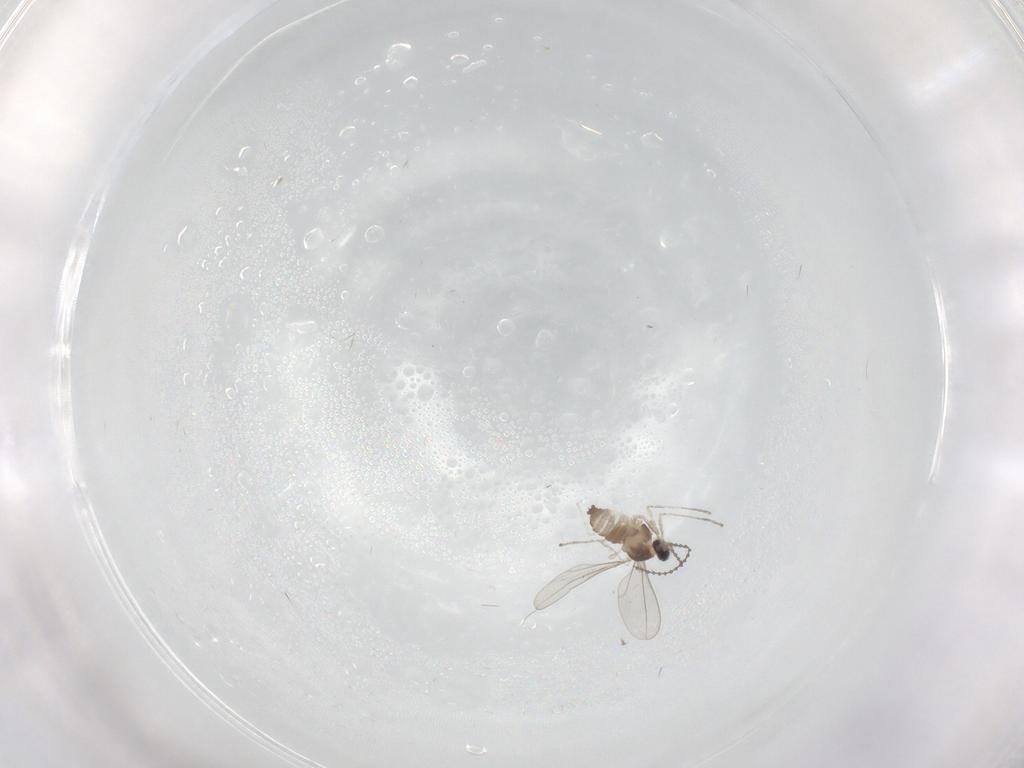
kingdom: Animalia
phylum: Arthropoda
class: Insecta
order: Diptera
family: Cecidomyiidae
